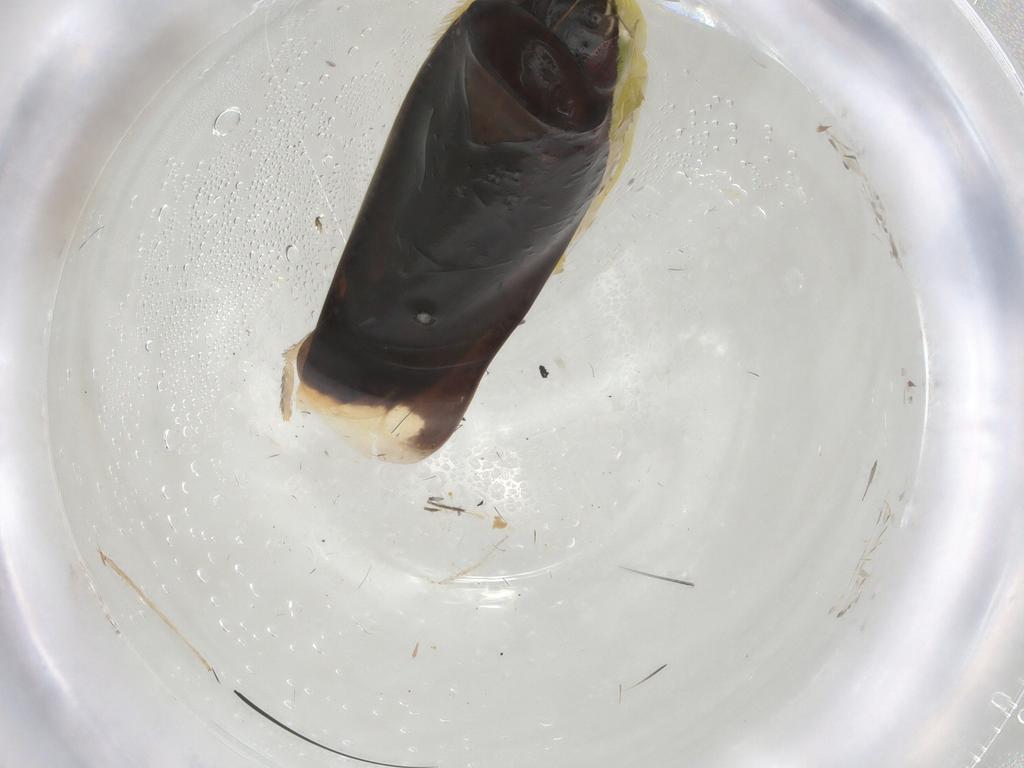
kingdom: Animalia
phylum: Arthropoda
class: Insecta
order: Hemiptera
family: Cicadellidae
